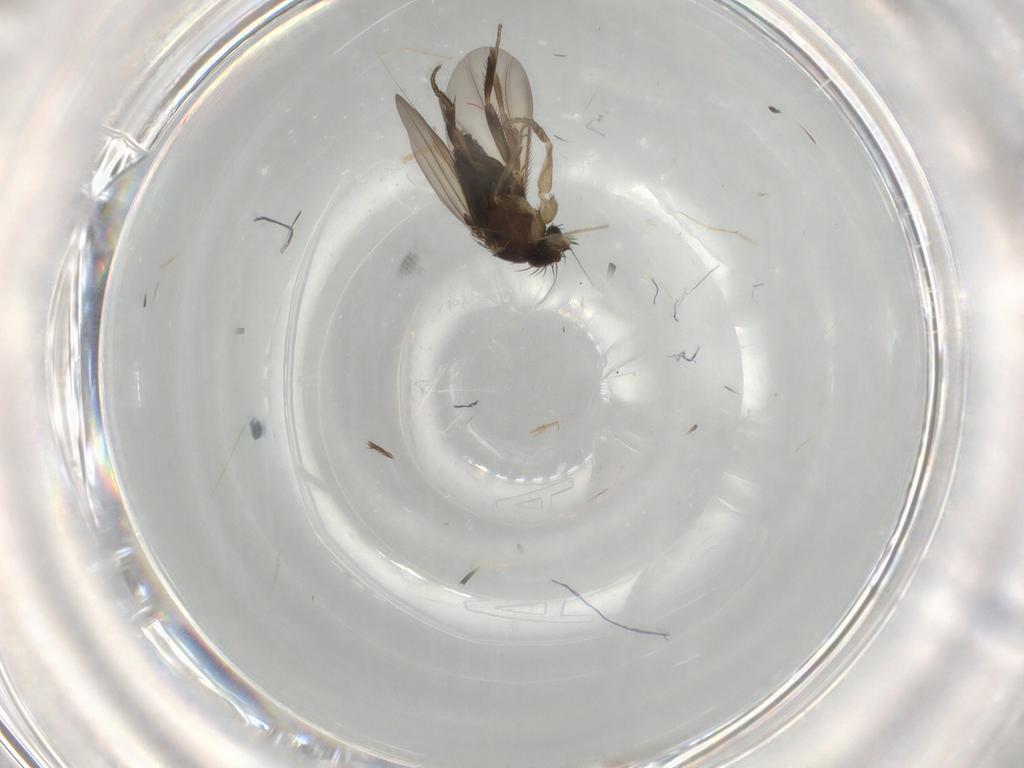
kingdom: Animalia
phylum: Arthropoda
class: Insecta
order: Diptera
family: Phoridae
